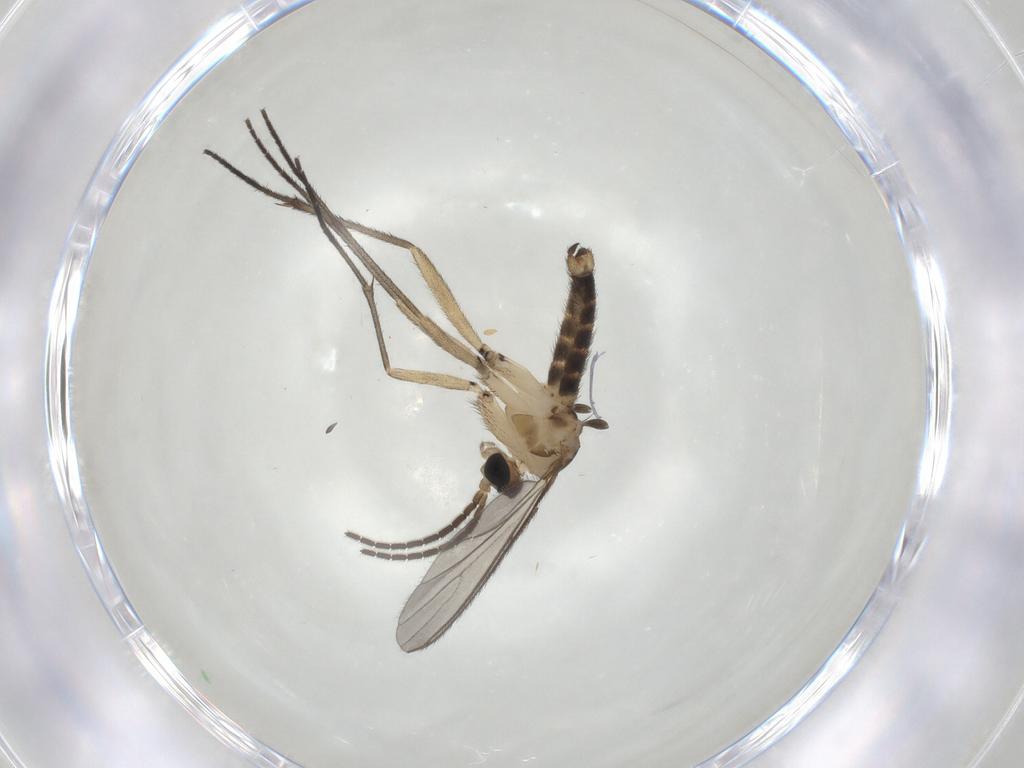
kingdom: Animalia
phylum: Arthropoda
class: Insecta
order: Diptera
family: Sciaridae
